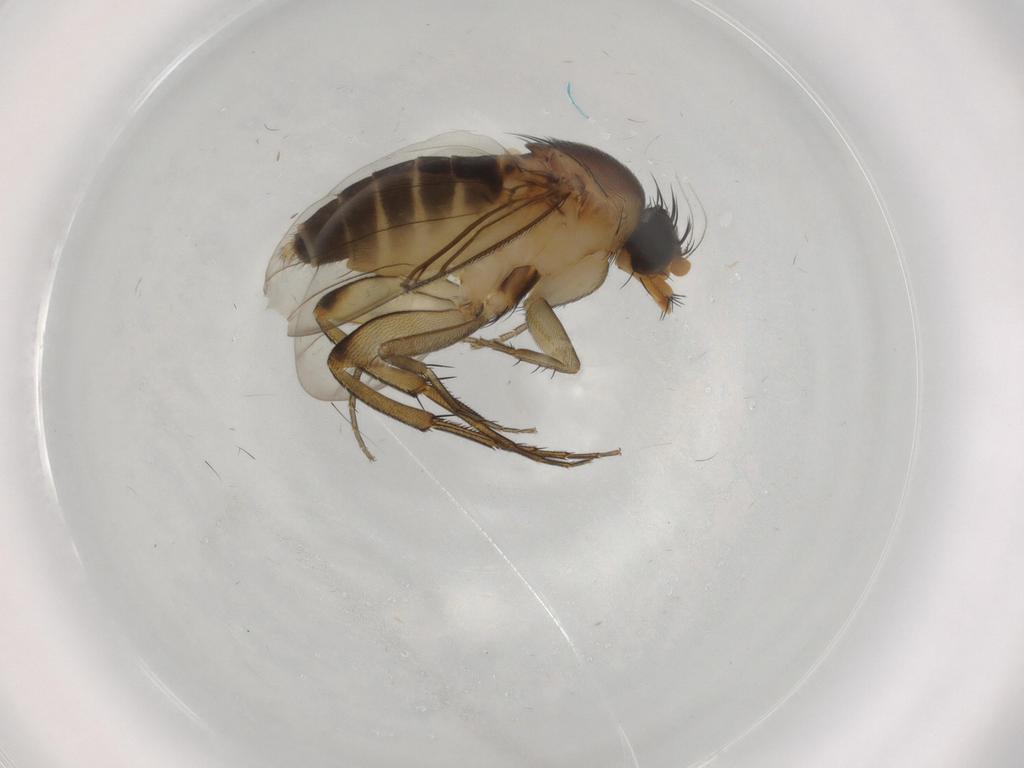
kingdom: Animalia
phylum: Arthropoda
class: Insecta
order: Diptera
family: Phoridae
